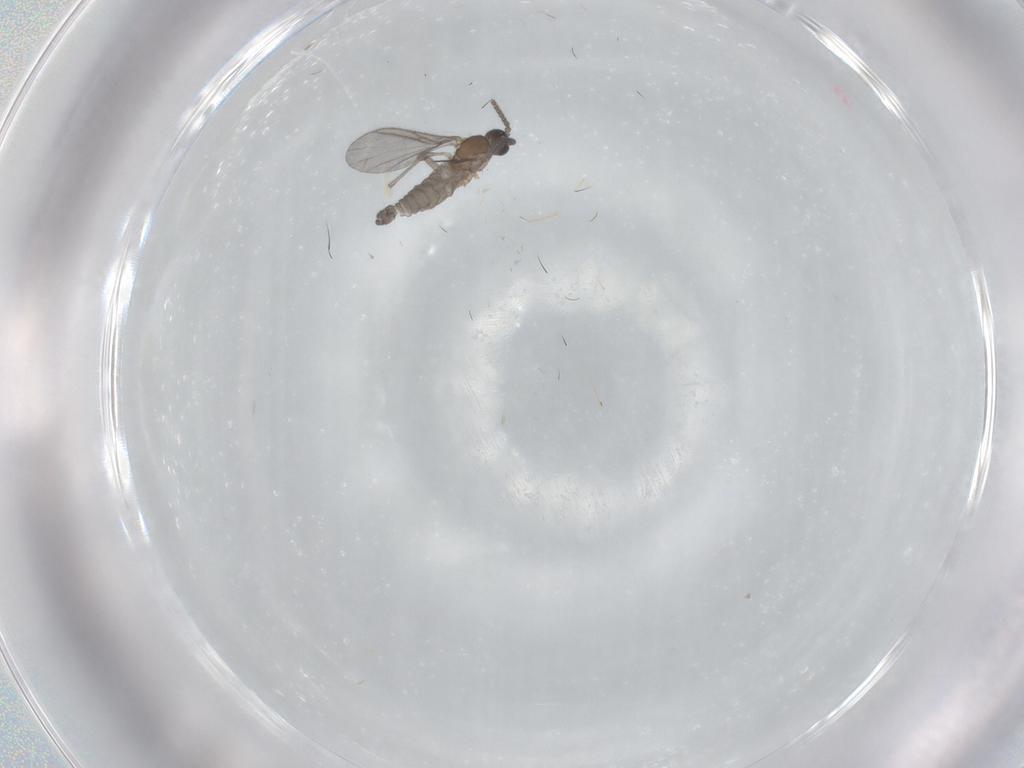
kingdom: Animalia
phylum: Arthropoda
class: Insecta
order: Diptera
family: Sciaridae
